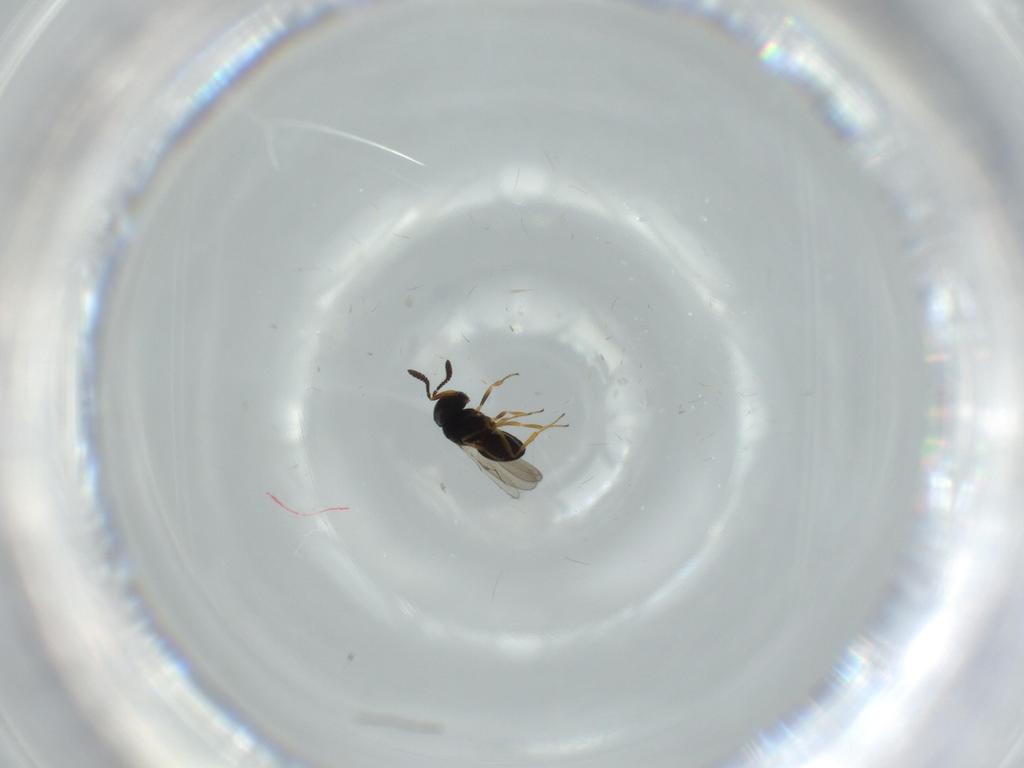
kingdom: Animalia
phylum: Arthropoda
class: Insecta
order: Hymenoptera
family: Scelionidae
